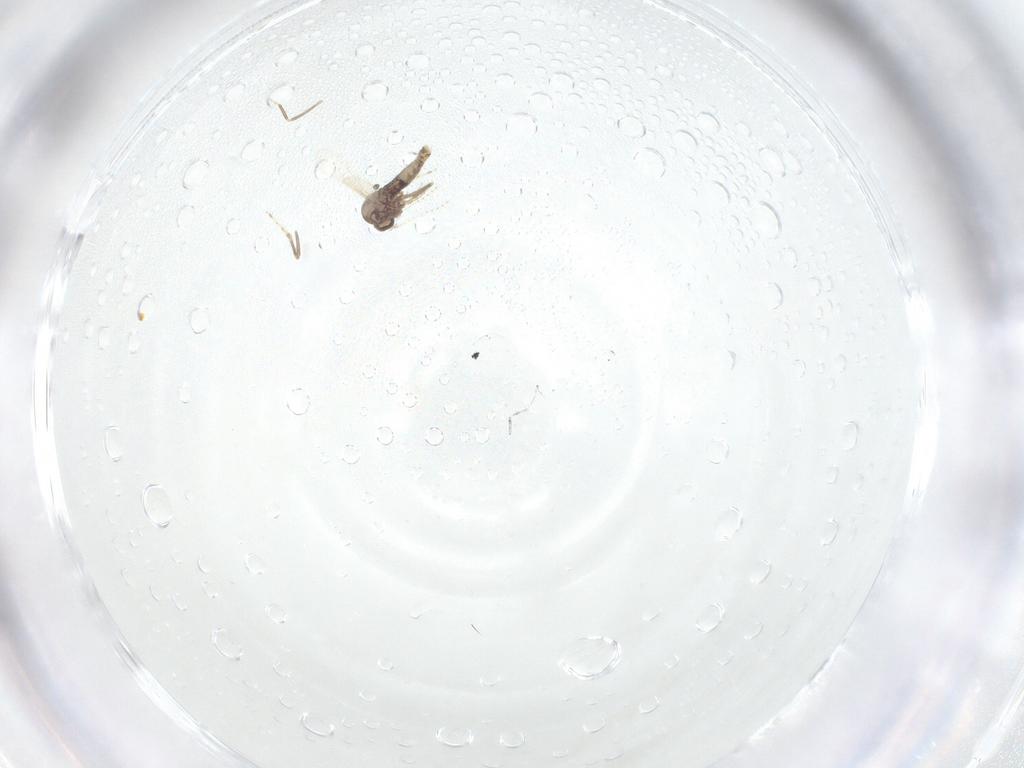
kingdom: Animalia
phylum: Arthropoda
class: Insecta
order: Diptera
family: Ceratopogonidae
